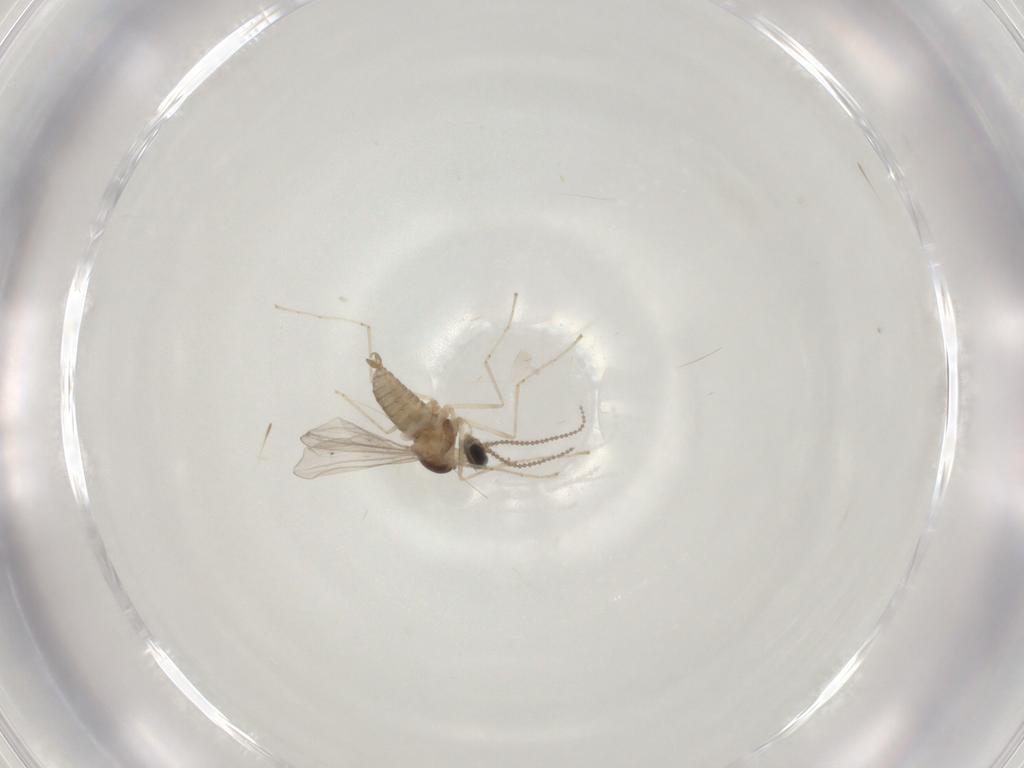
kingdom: Animalia
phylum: Arthropoda
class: Insecta
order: Diptera
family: Cecidomyiidae
